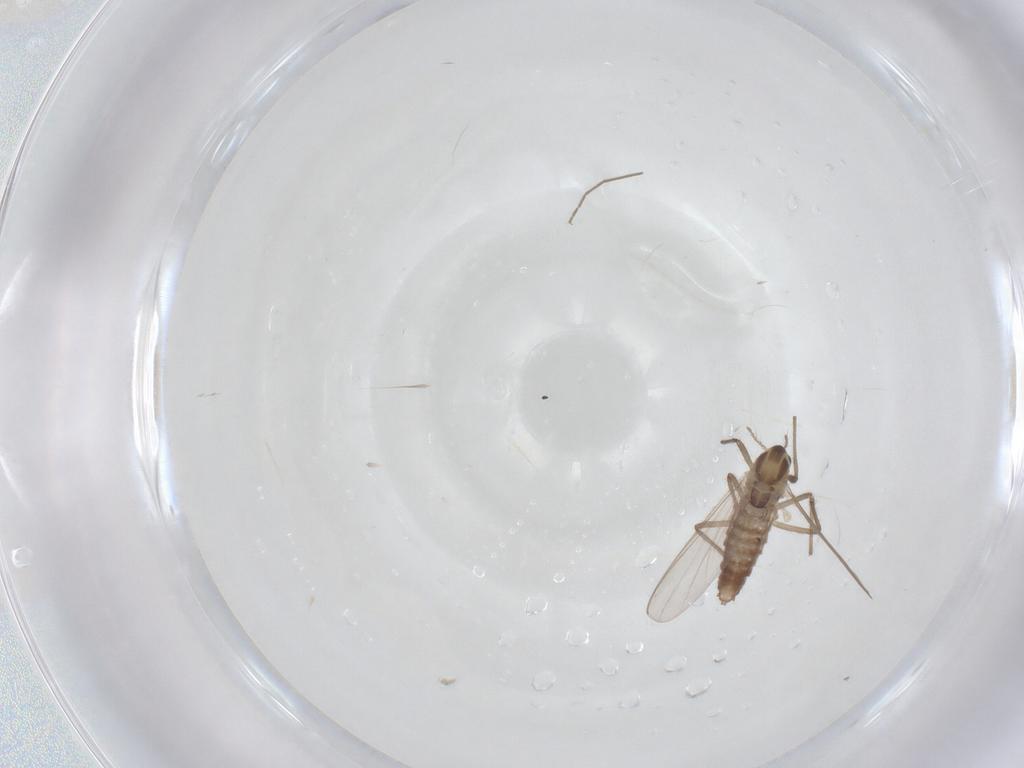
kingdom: Animalia
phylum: Arthropoda
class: Insecta
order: Diptera
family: Chironomidae
